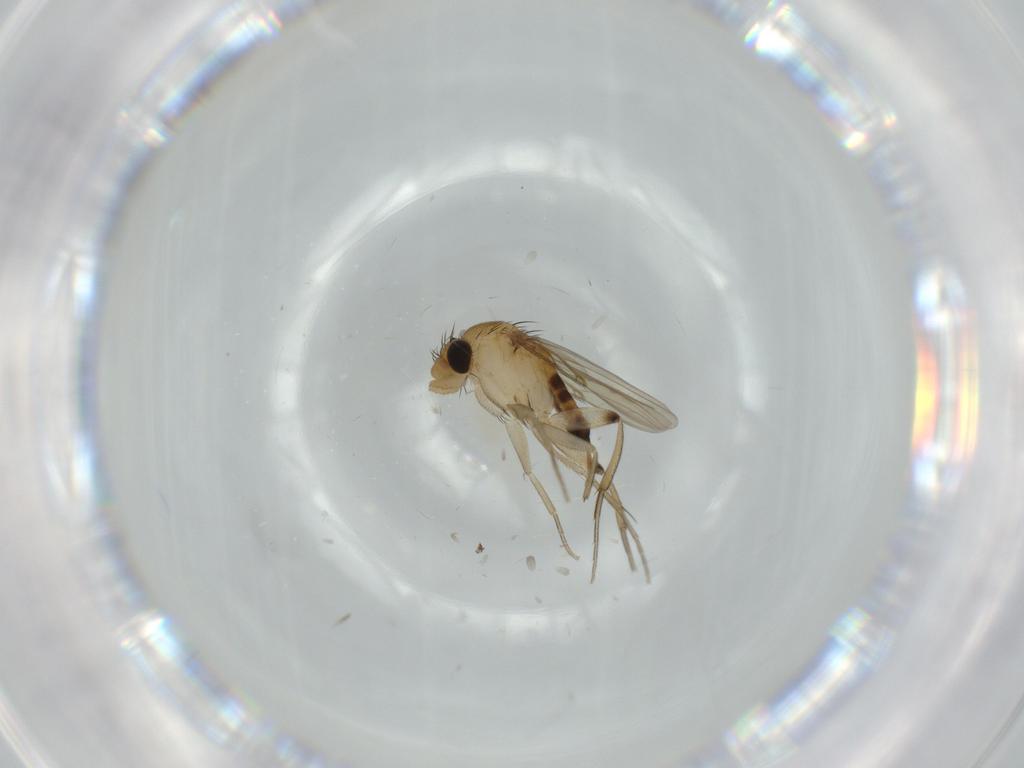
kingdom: Animalia
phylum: Arthropoda
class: Insecta
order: Diptera
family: Phoridae
